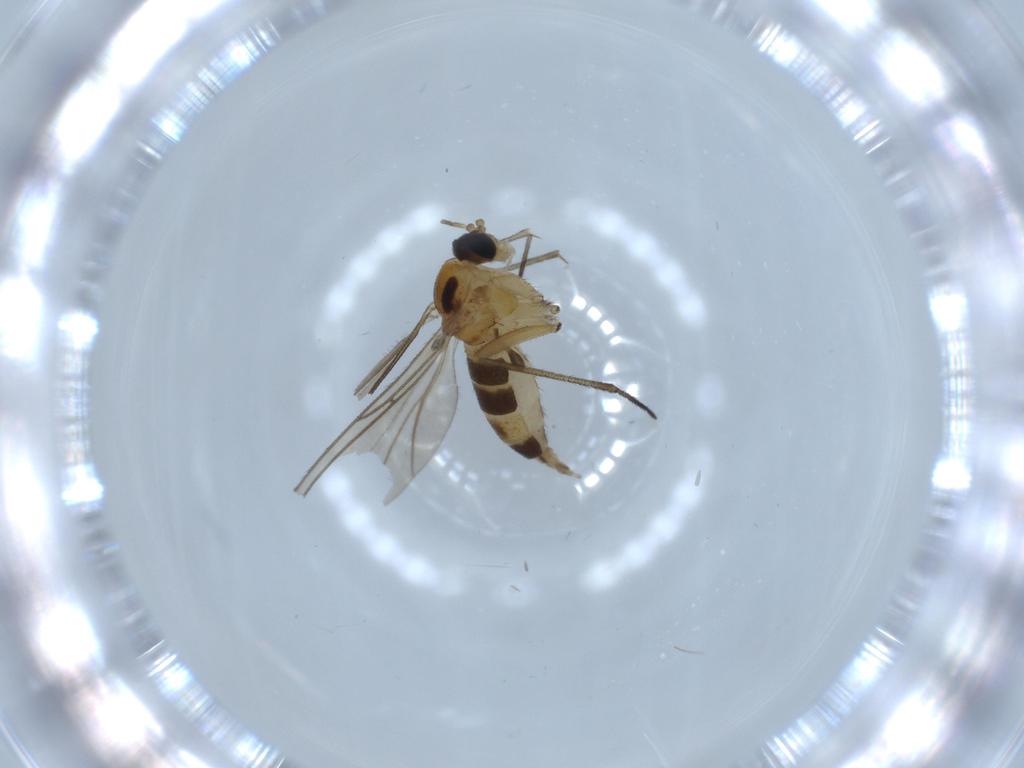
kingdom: Animalia
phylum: Arthropoda
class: Insecta
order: Diptera
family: Sciaridae
